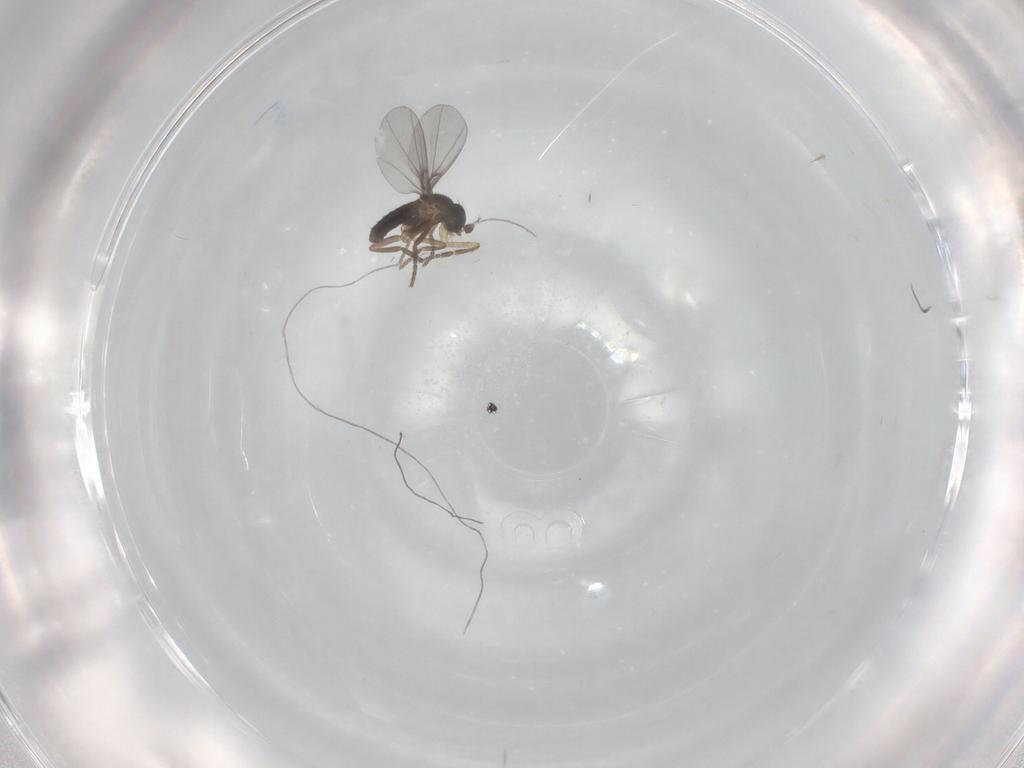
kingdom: Animalia
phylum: Arthropoda
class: Insecta
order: Diptera
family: Phoridae
